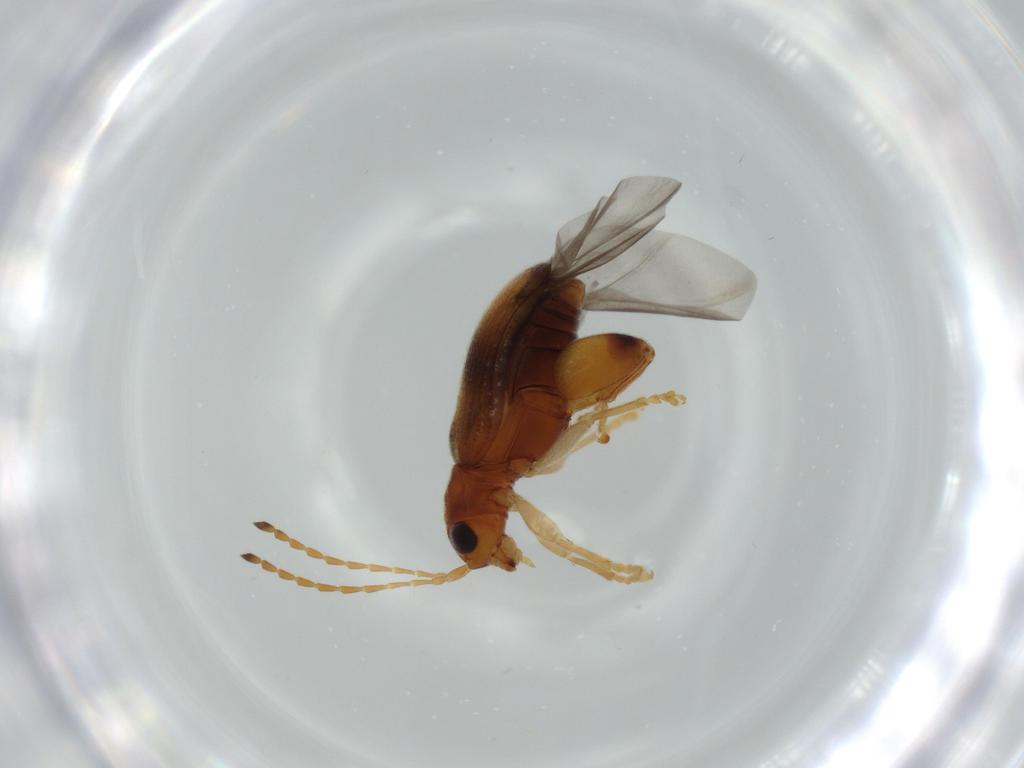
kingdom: Animalia
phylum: Arthropoda
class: Insecta
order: Coleoptera
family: Chrysomelidae
